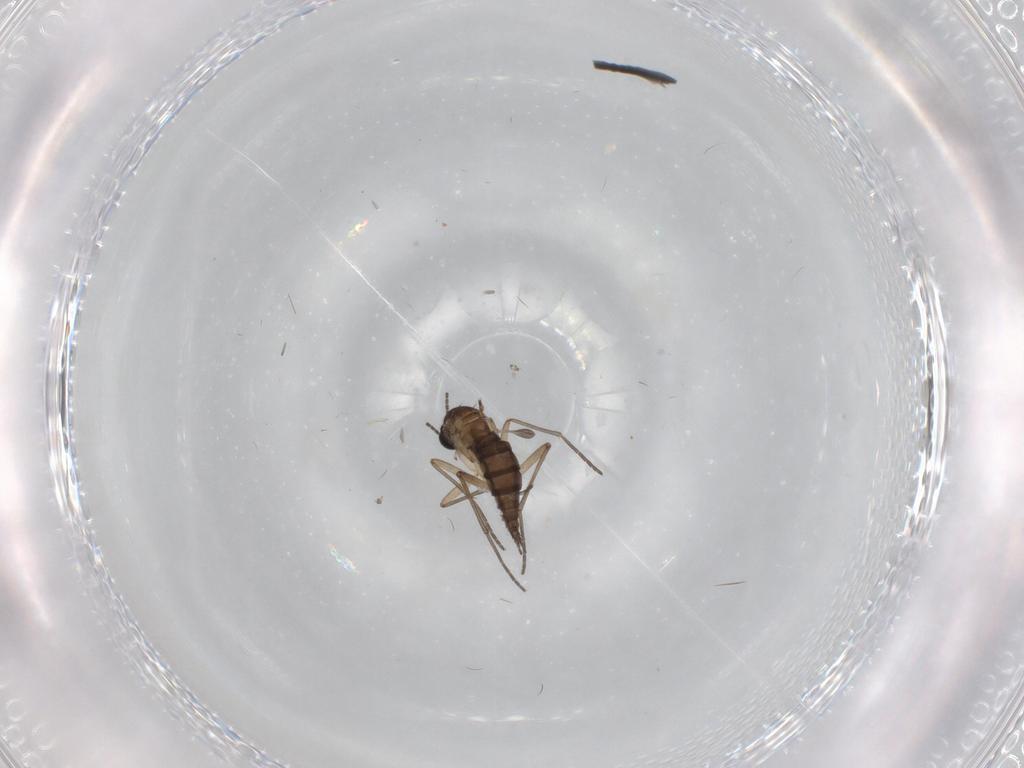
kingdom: Animalia
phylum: Arthropoda
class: Insecta
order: Diptera
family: Sciaridae
